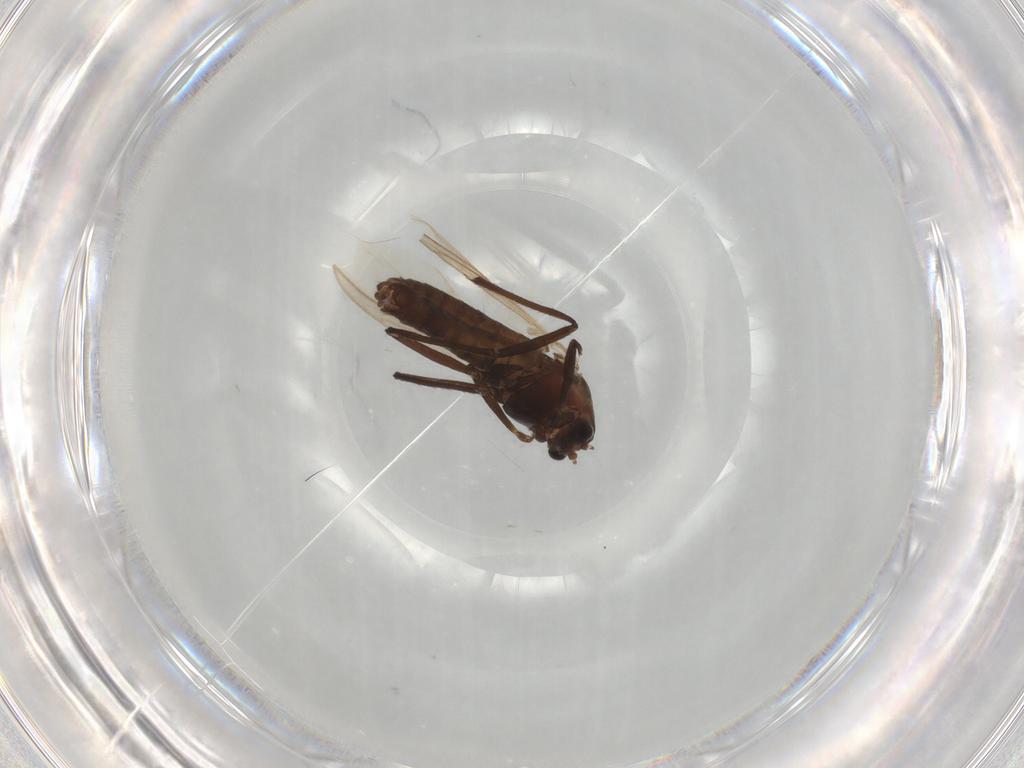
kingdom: Animalia
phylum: Arthropoda
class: Insecta
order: Diptera
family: Chironomidae
